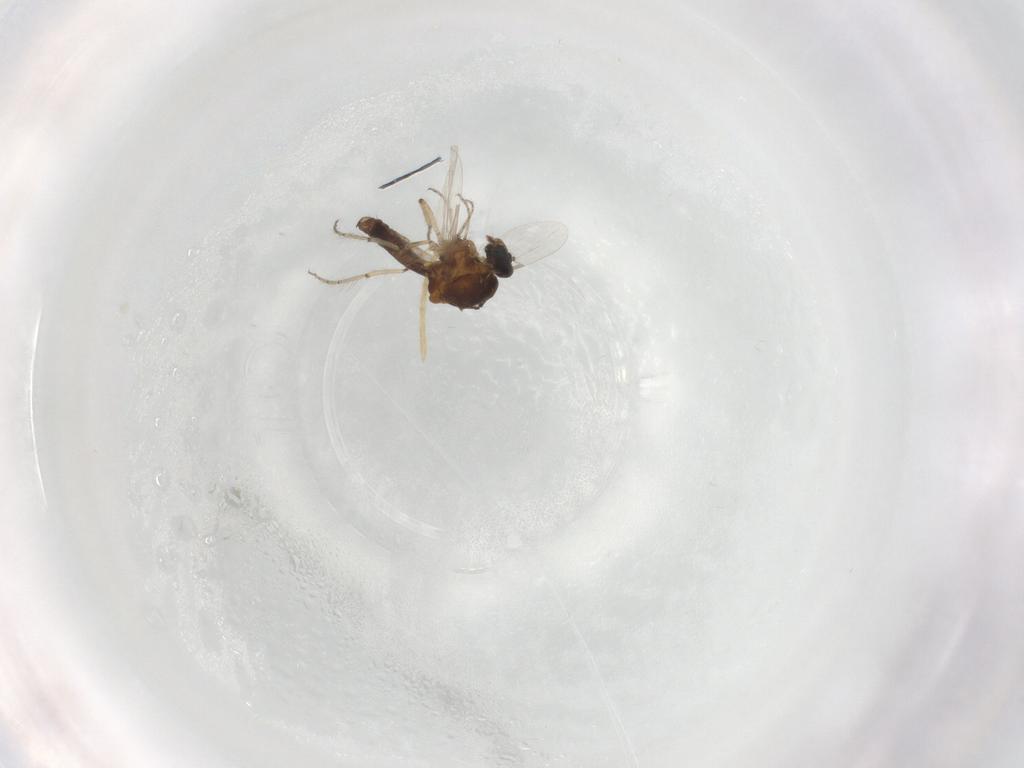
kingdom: Animalia
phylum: Arthropoda
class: Insecta
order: Diptera
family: Ceratopogonidae
